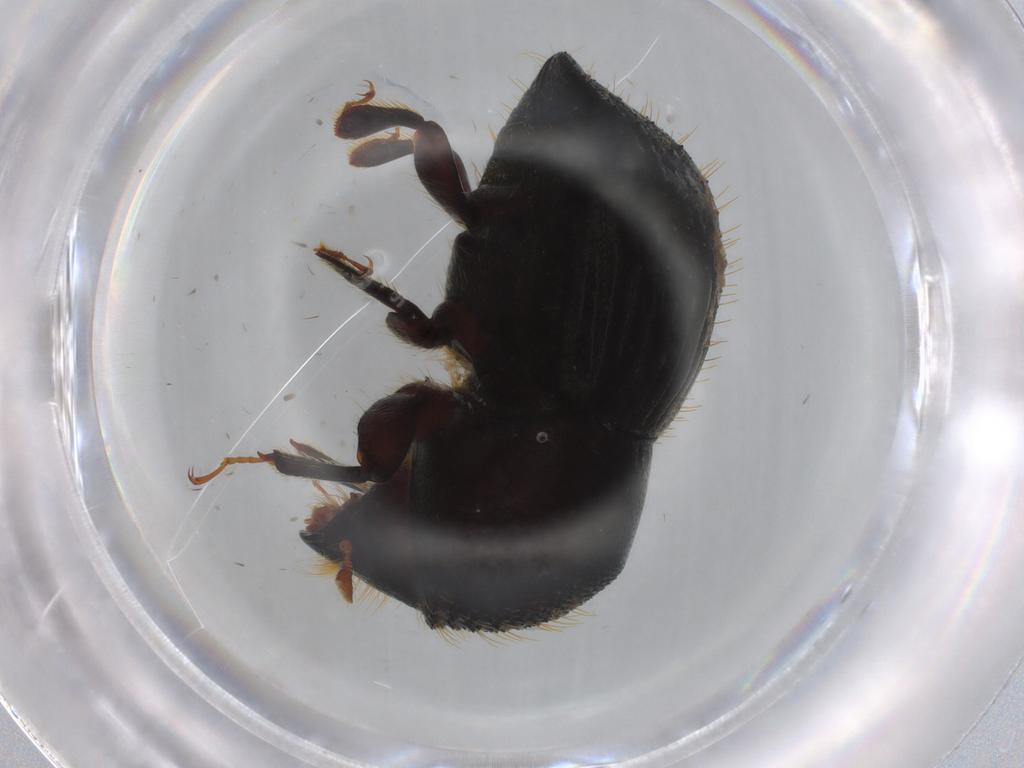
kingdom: Animalia
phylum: Arthropoda
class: Insecta
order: Coleoptera
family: Curculionidae
